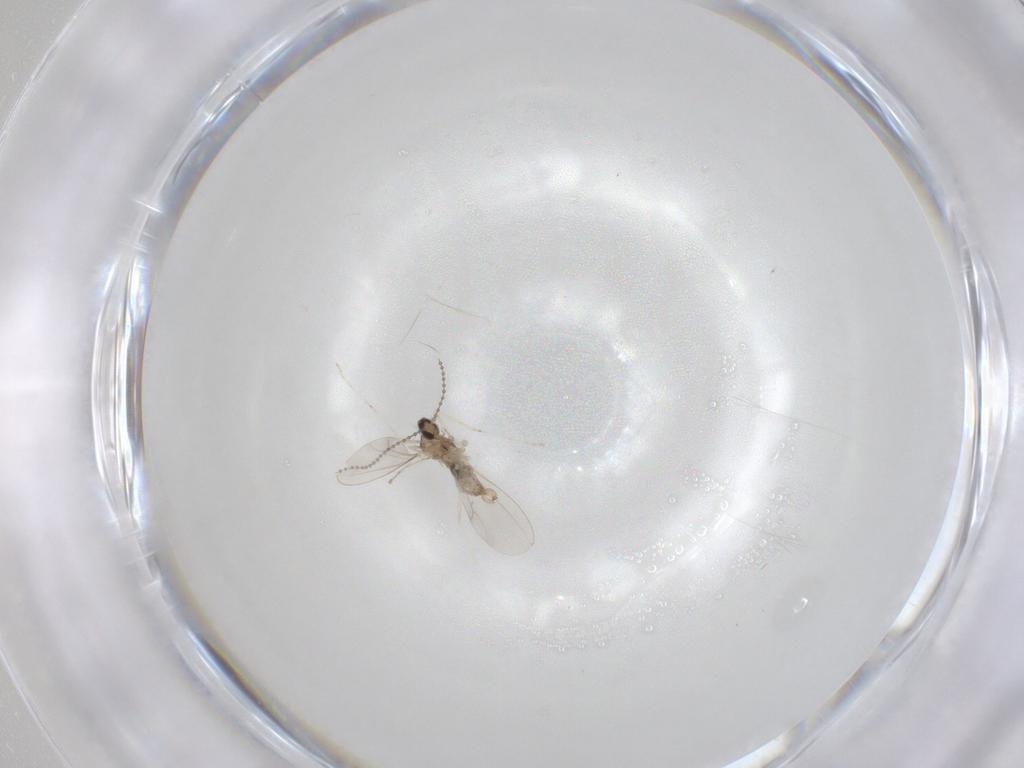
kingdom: Animalia
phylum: Arthropoda
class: Insecta
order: Diptera
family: Cecidomyiidae
